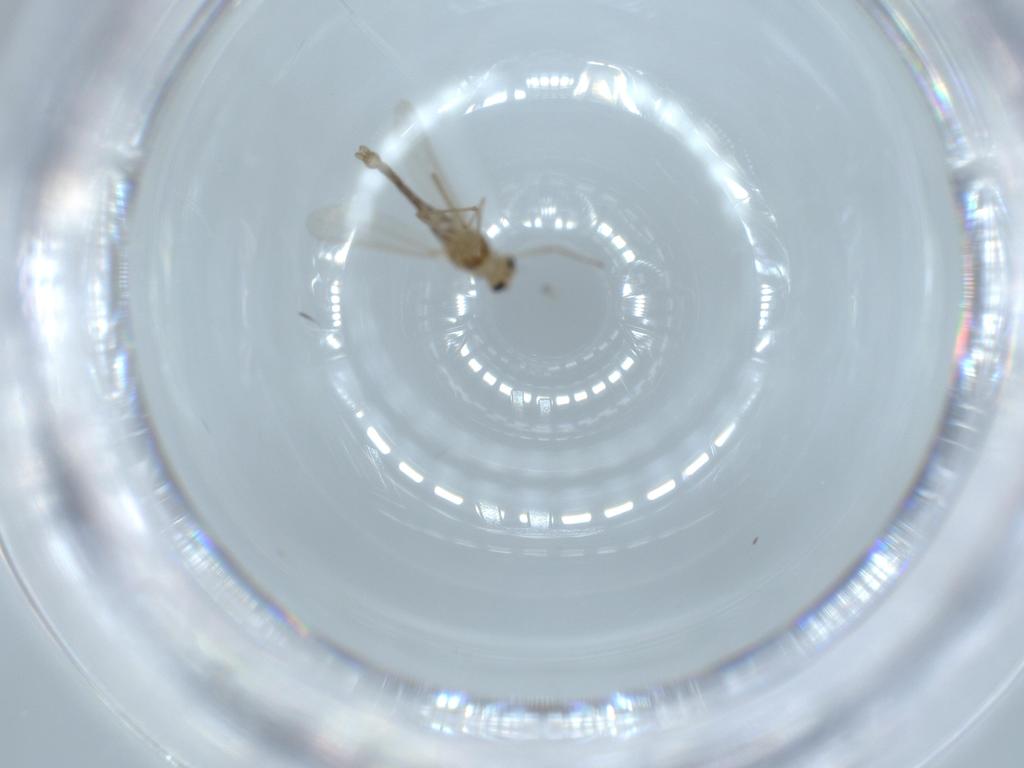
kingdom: Animalia
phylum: Arthropoda
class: Insecta
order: Diptera
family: Chironomidae
